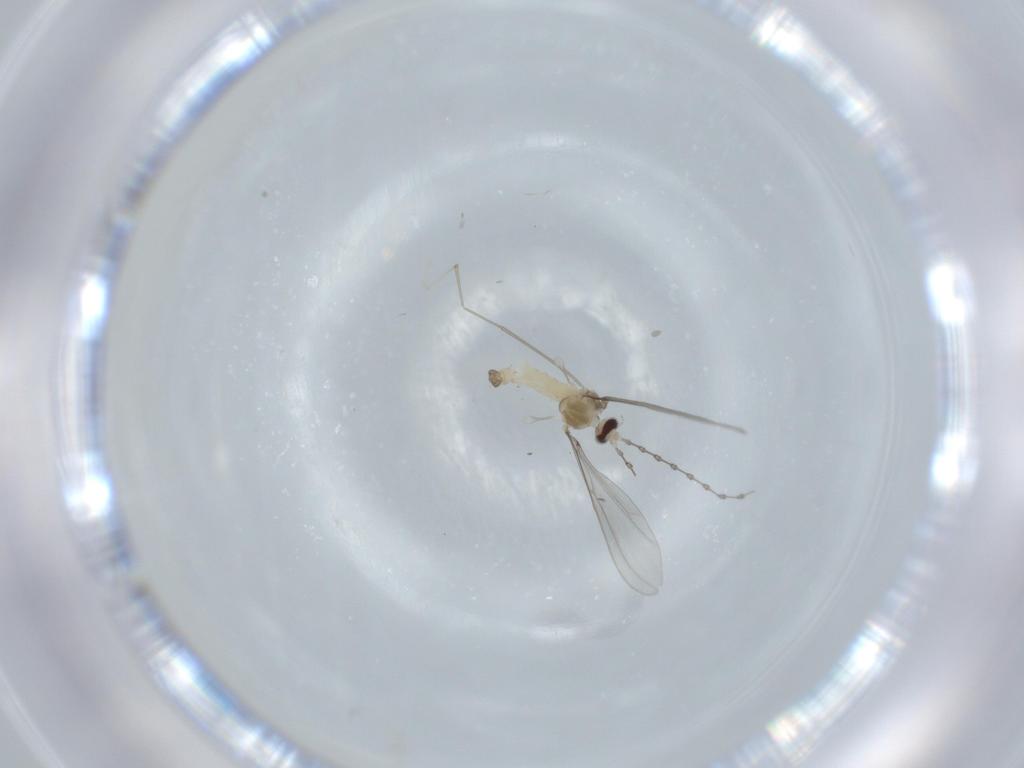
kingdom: Animalia
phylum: Arthropoda
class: Insecta
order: Diptera
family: Cecidomyiidae
